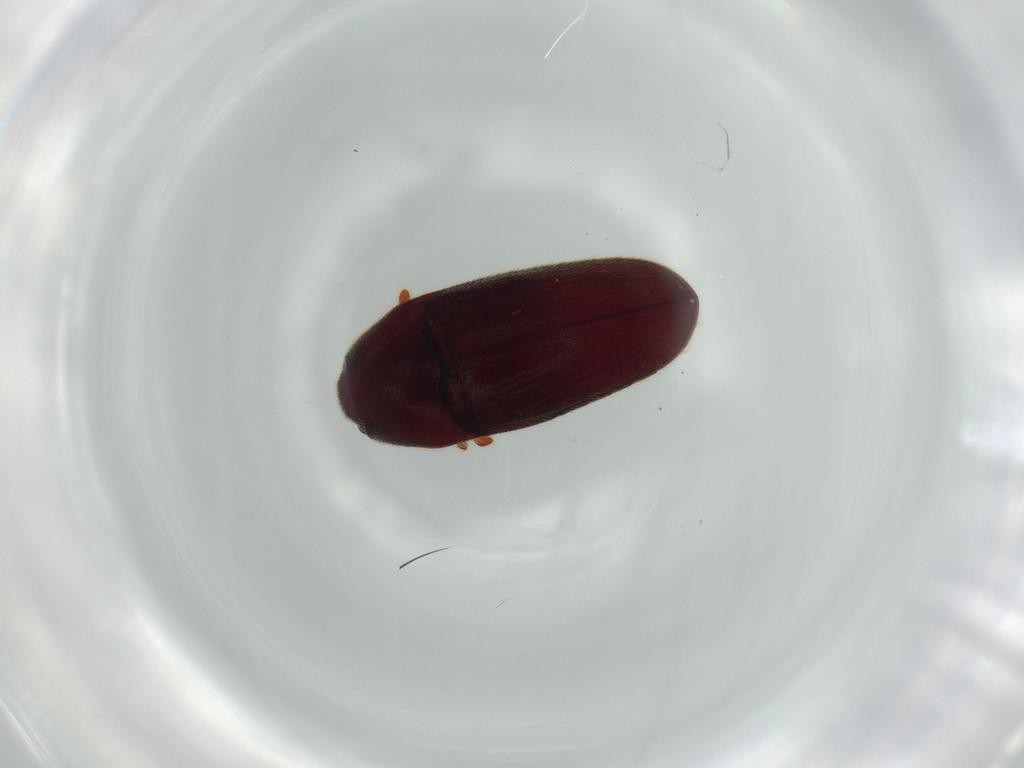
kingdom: Animalia
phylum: Arthropoda
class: Insecta
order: Coleoptera
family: Throscidae
